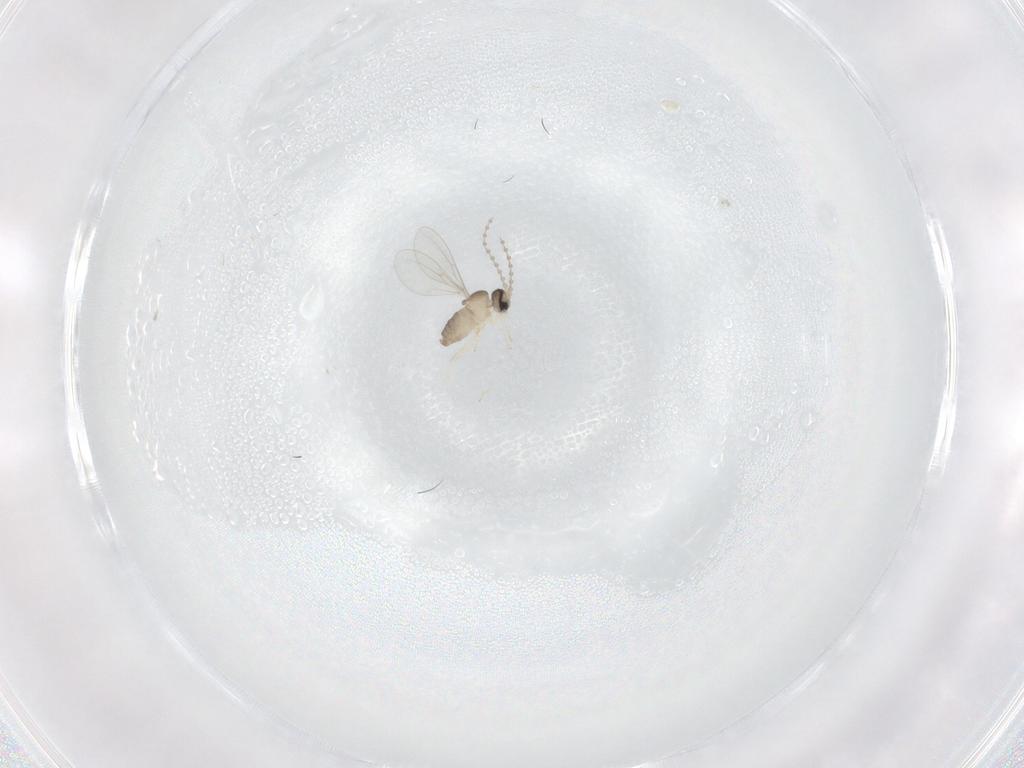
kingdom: Animalia
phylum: Arthropoda
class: Insecta
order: Diptera
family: Cecidomyiidae
